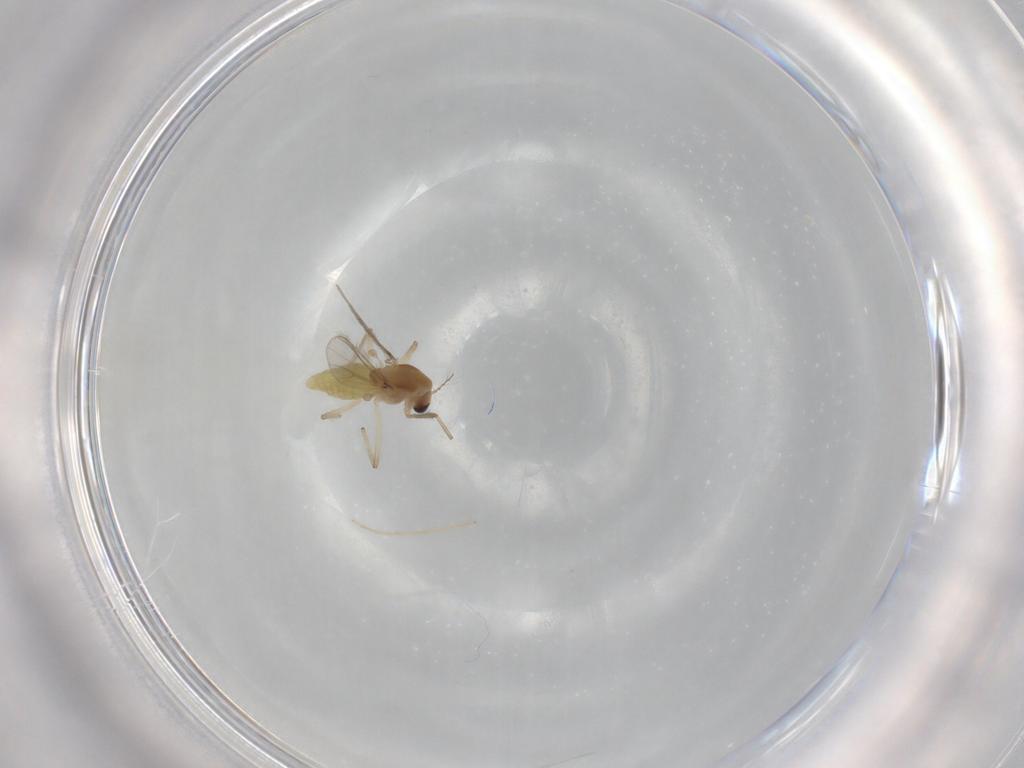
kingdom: Animalia
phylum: Arthropoda
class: Insecta
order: Diptera
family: Chironomidae
